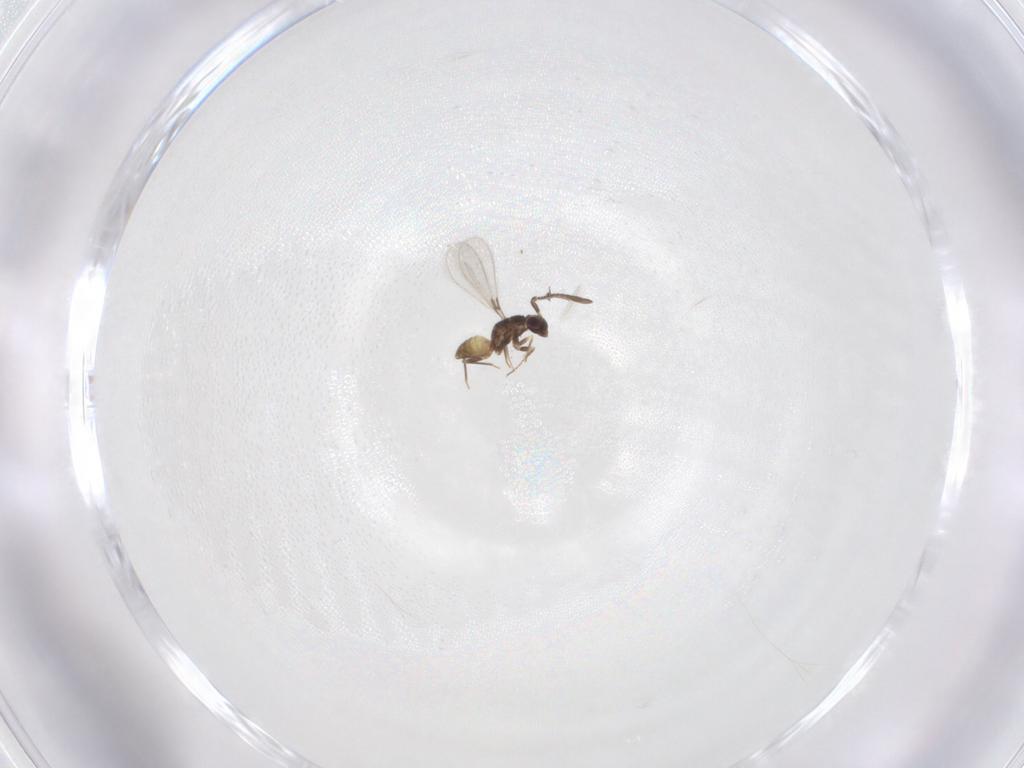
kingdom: Animalia
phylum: Arthropoda
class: Insecta
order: Hymenoptera
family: Mymaridae
